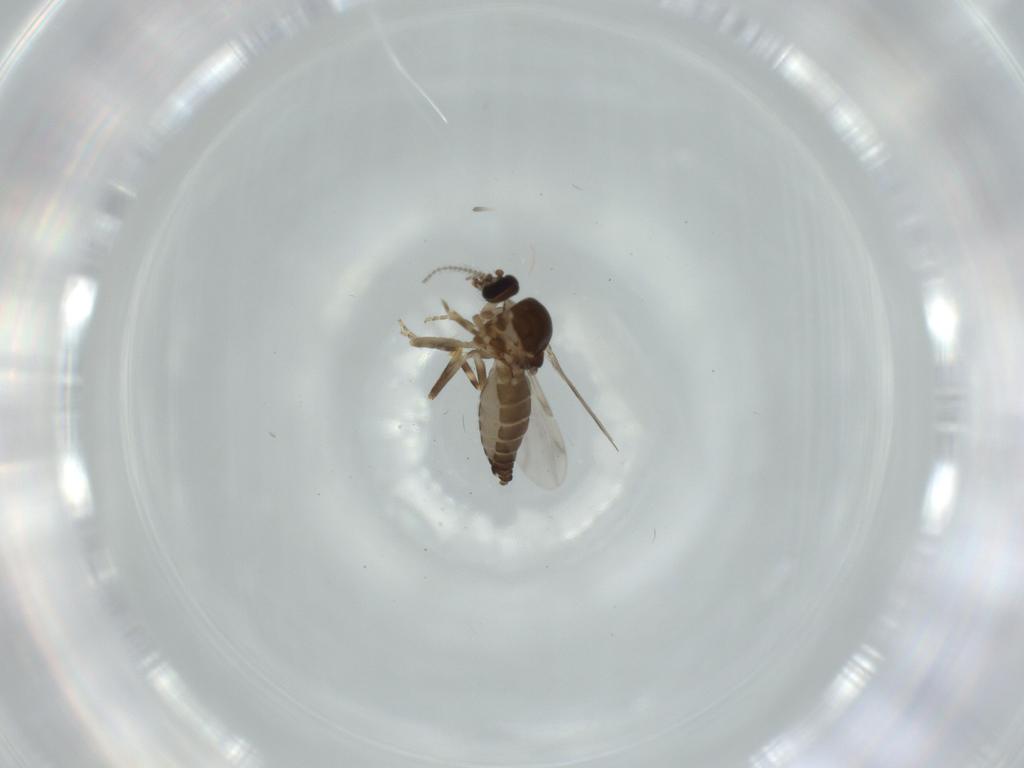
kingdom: Animalia
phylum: Arthropoda
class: Insecta
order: Diptera
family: Ceratopogonidae
